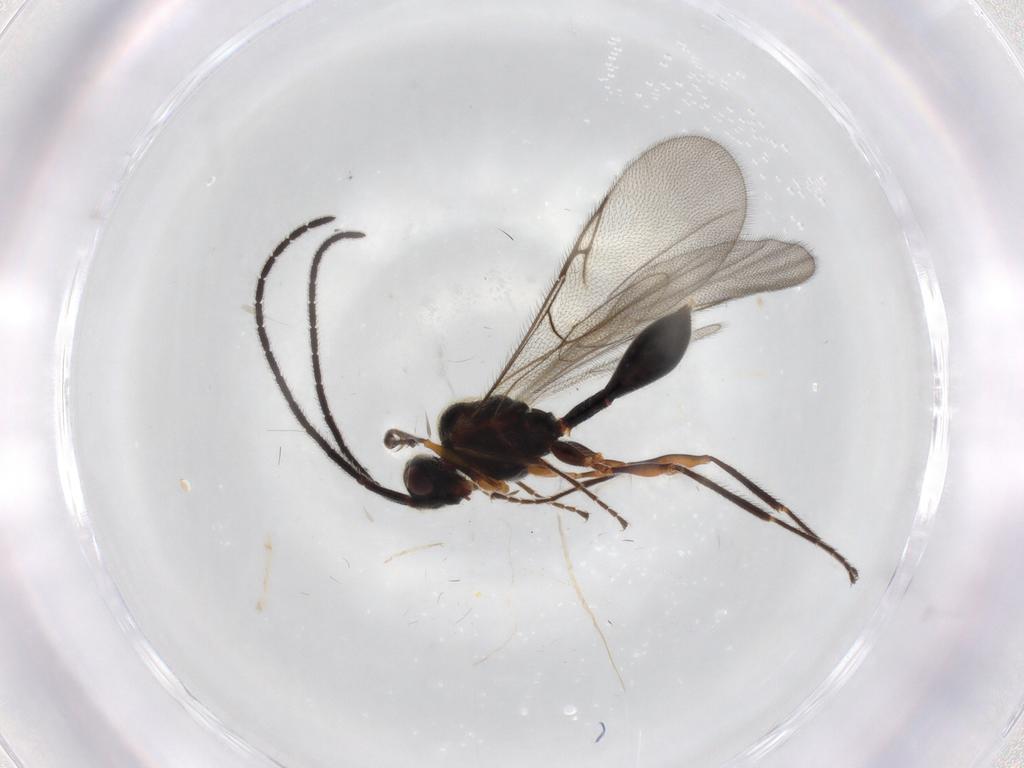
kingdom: Animalia
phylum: Arthropoda
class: Insecta
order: Hymenoptera
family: Diapriidae
